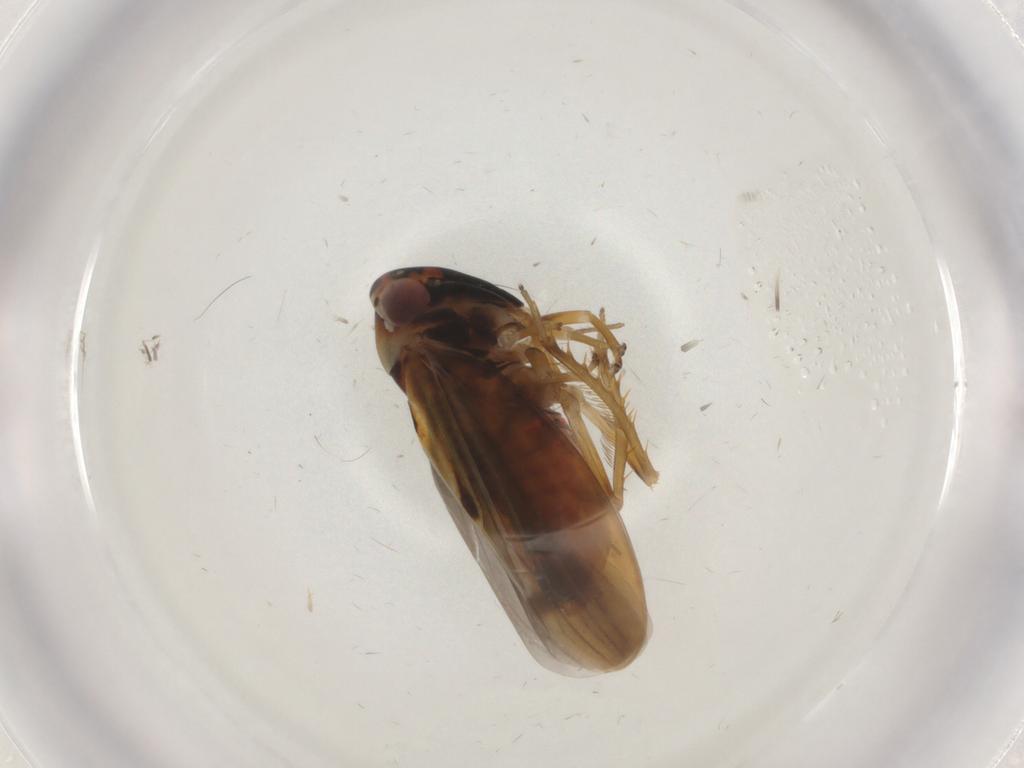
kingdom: Animalia
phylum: Arthropoda
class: Insecta
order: Hemiptera
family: Cicadellidae
